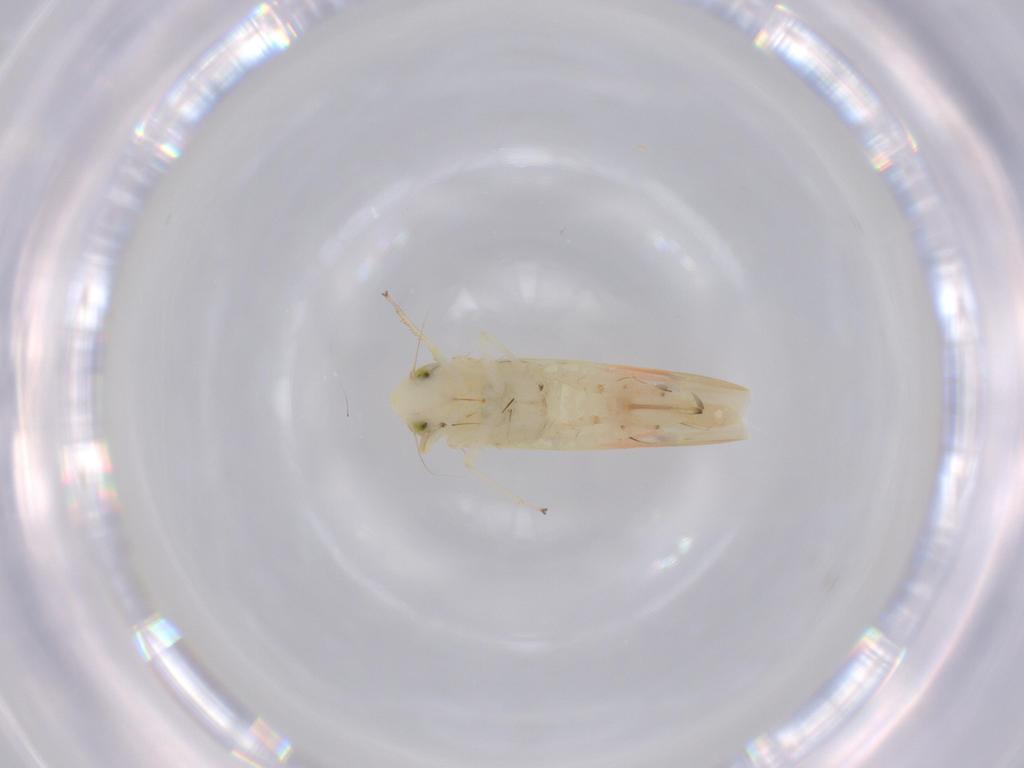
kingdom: Animalia
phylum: Arthropoda
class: Insecta
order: Hemiptera
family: Cicadellidae
